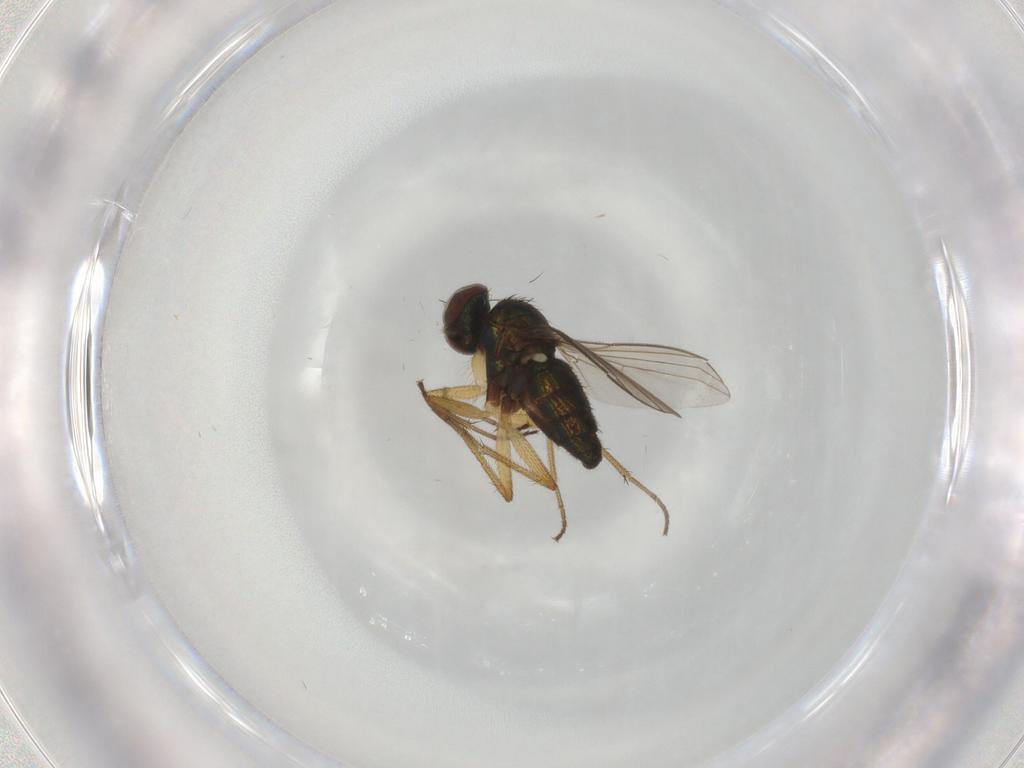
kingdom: Animalia
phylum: Arthropoda
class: Insecta
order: Diptera
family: Dolichopodidae
